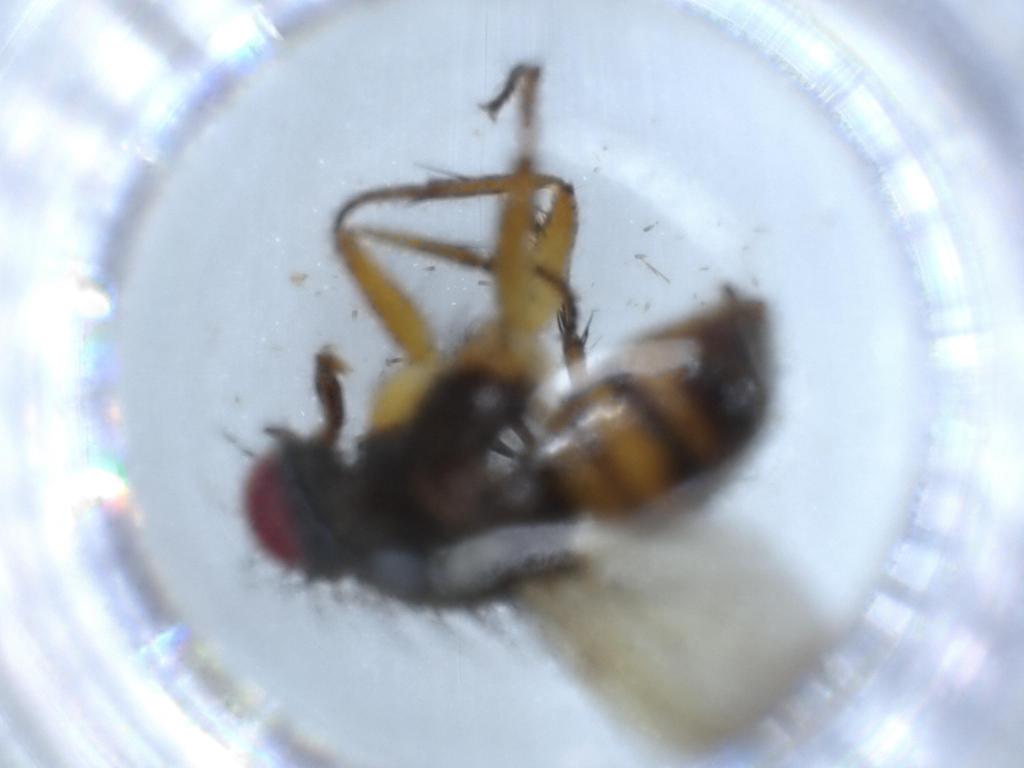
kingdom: Animalia
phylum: Arthropoda
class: Insecta
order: Diptera
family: Muscidae
